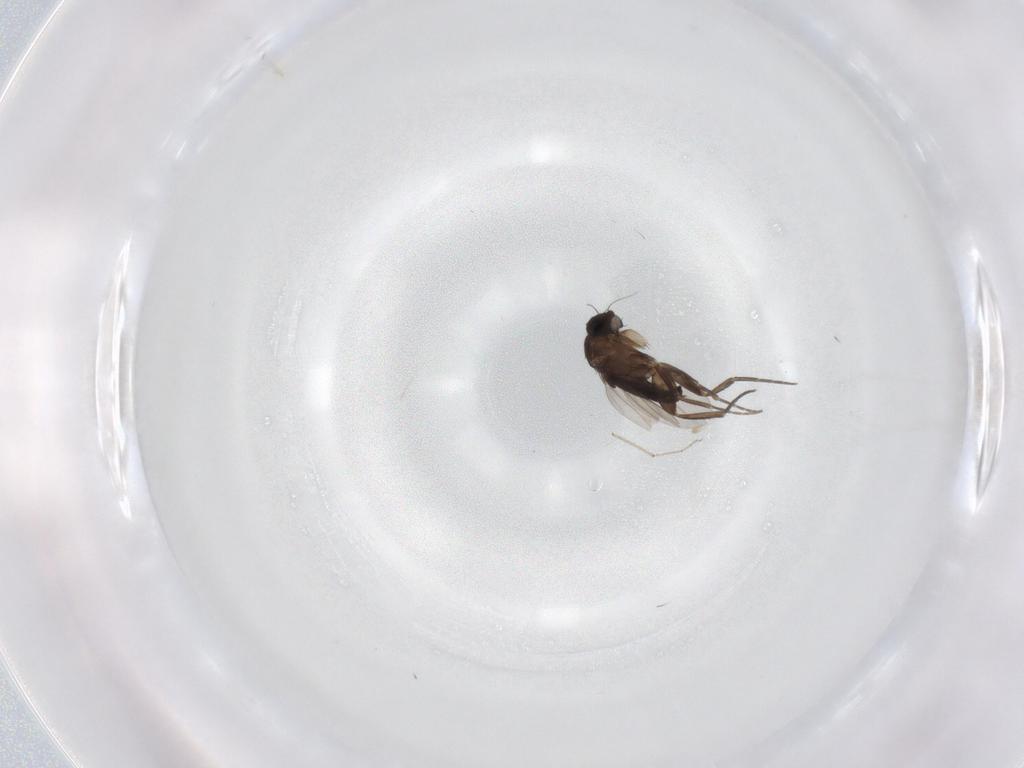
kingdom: Animalia
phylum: Arthropoda
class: Insecta
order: Diptera
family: Phoridae
